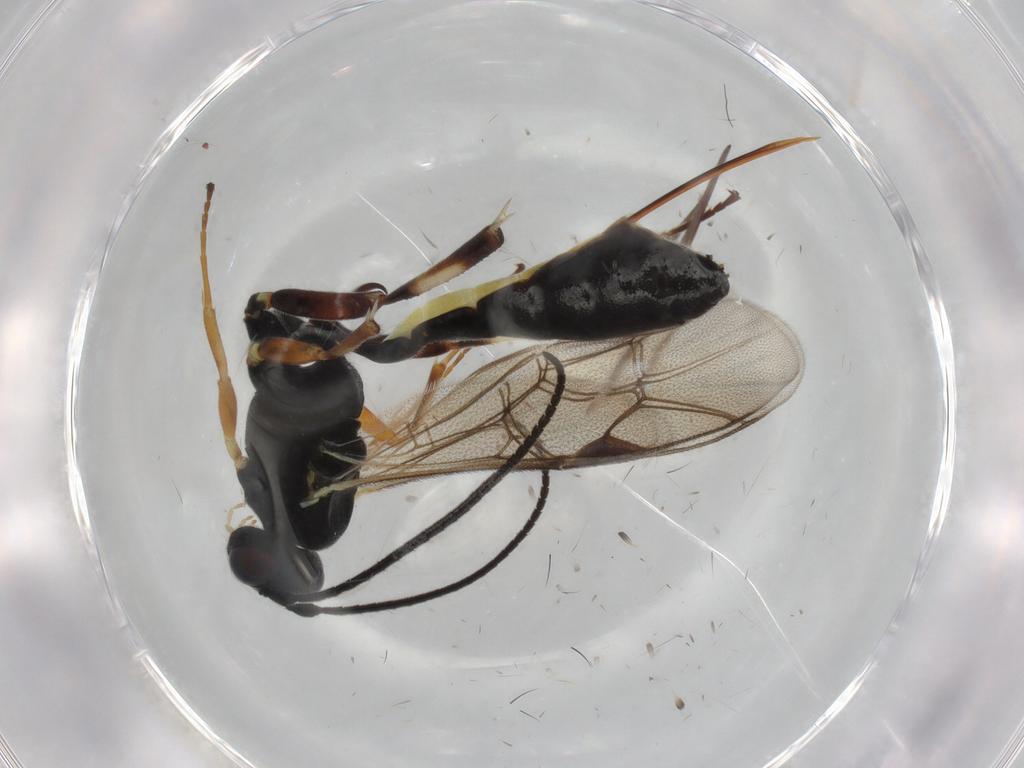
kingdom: Animalia
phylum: Arthropoda
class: Insecta
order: Hymenoptera
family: Ichneumonidae
